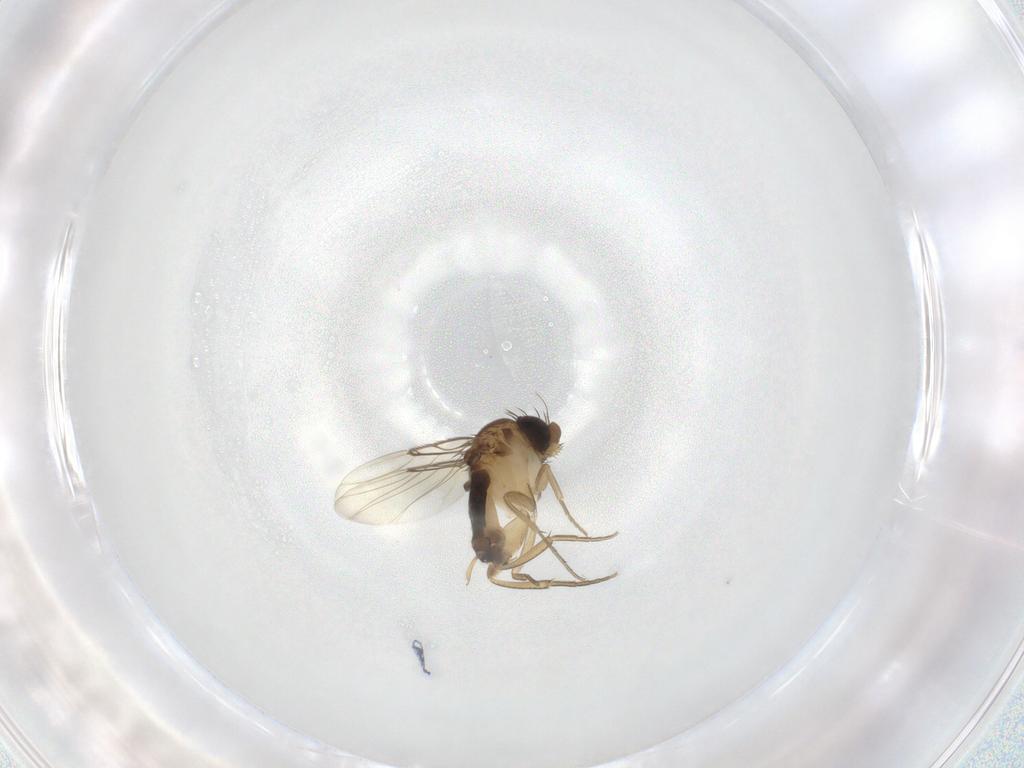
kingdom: Animalia
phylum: Arthropoda
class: Insecta
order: Diptera
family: Phoridae
